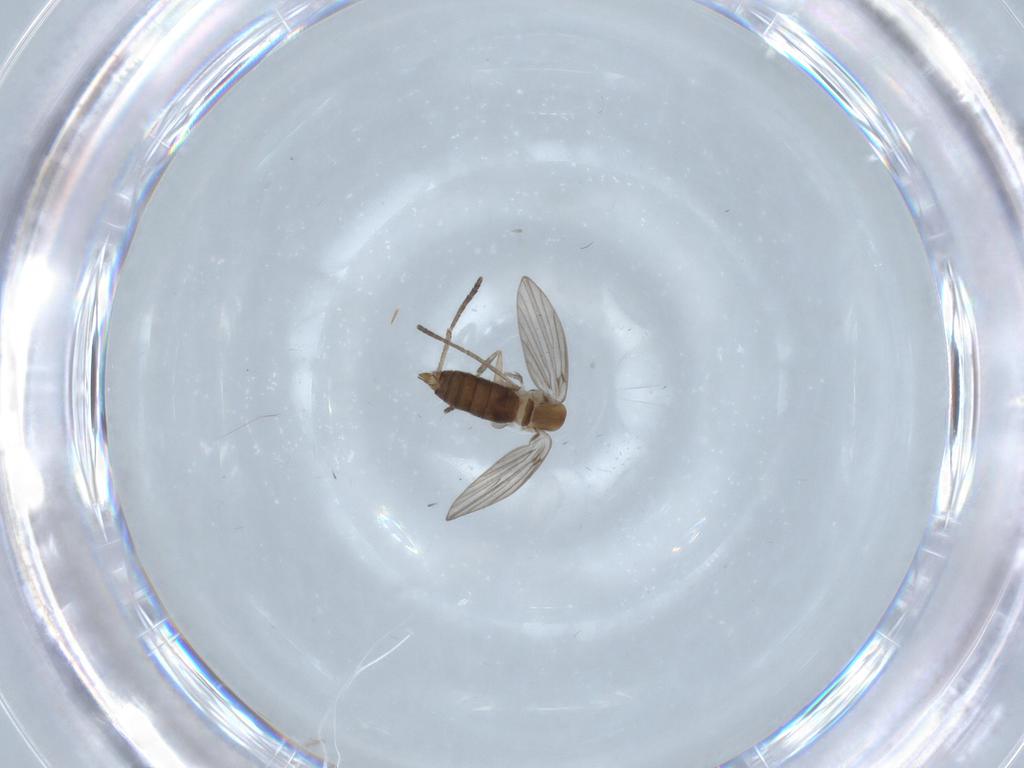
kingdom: Animalia
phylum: Arthropoda
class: Insecta
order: Diptera
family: Psychodidae
